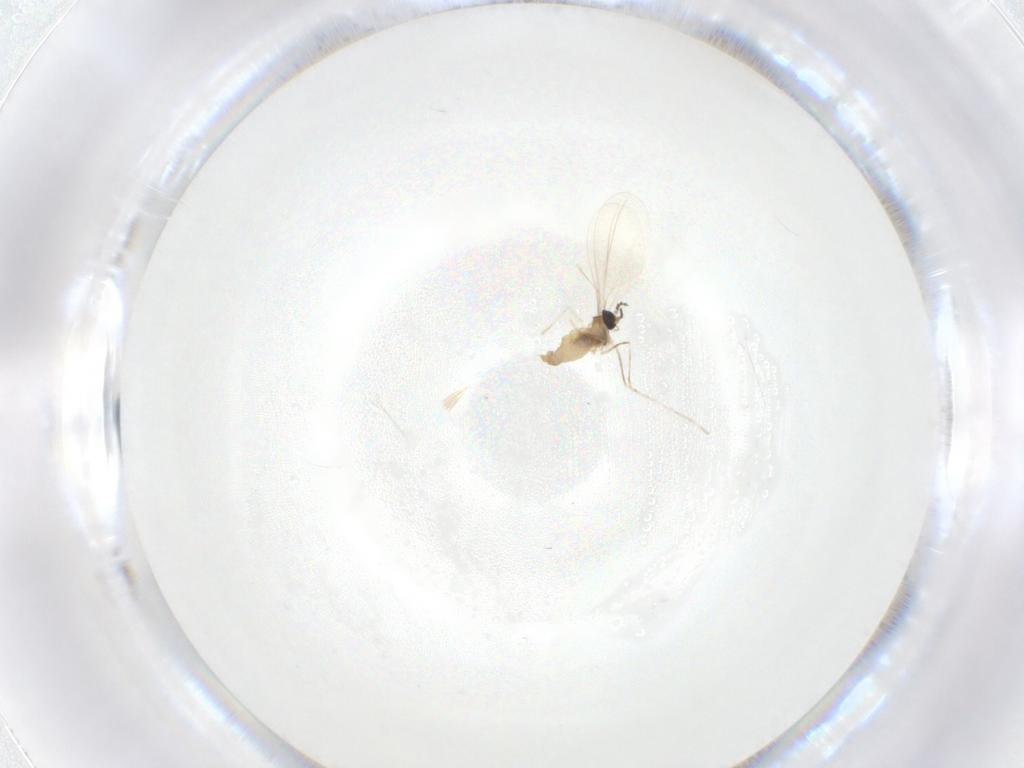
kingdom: Animalia
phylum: Arthropoda
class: Insecta
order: Diptera
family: Cecidomyiidae
